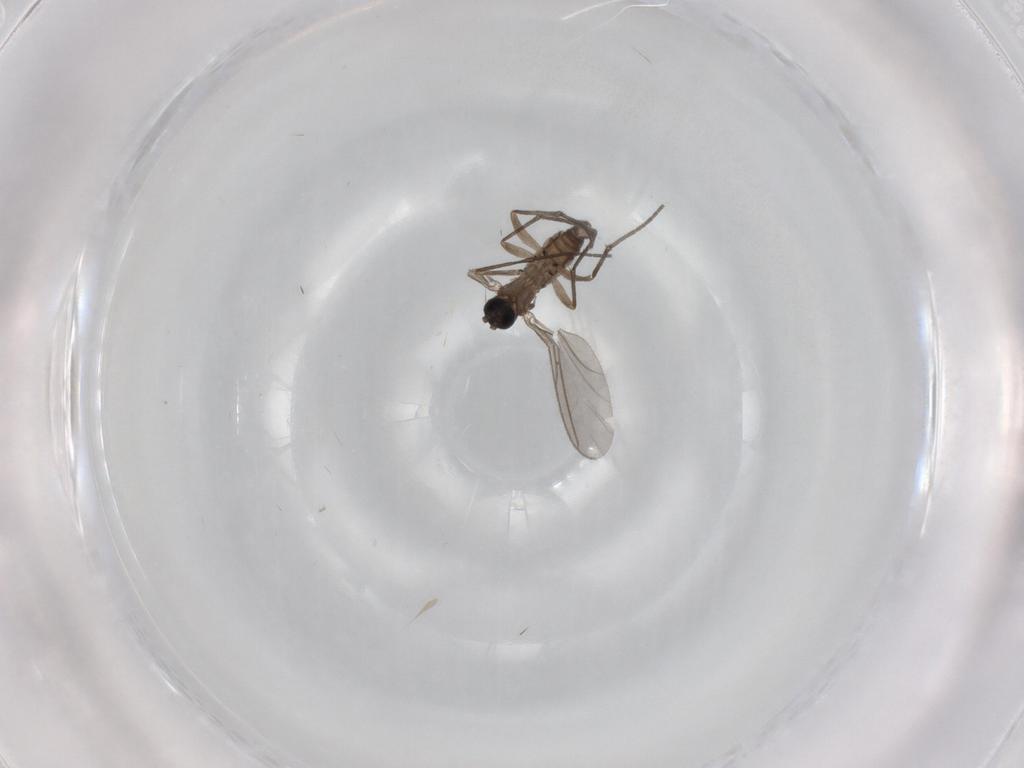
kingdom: Animalia
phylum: Arthropoda
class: Insecta
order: Diptera
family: Sciaridae
